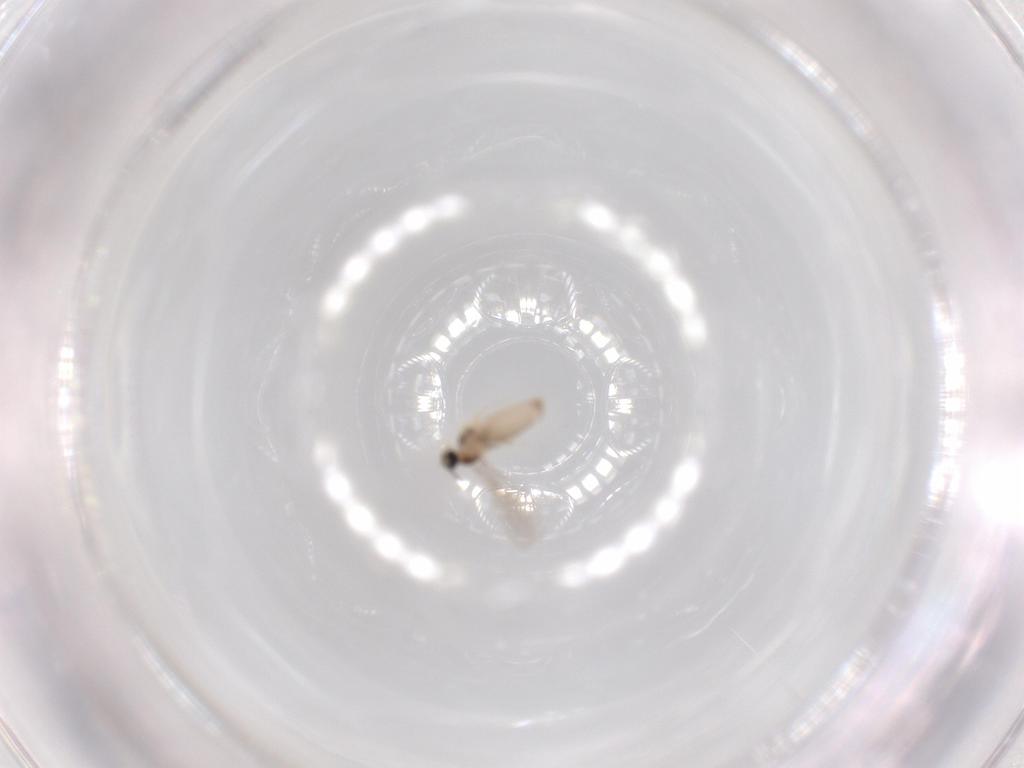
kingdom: Animalia
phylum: Arthropoda
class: Insecta
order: Diptera
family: Drosophilidae
